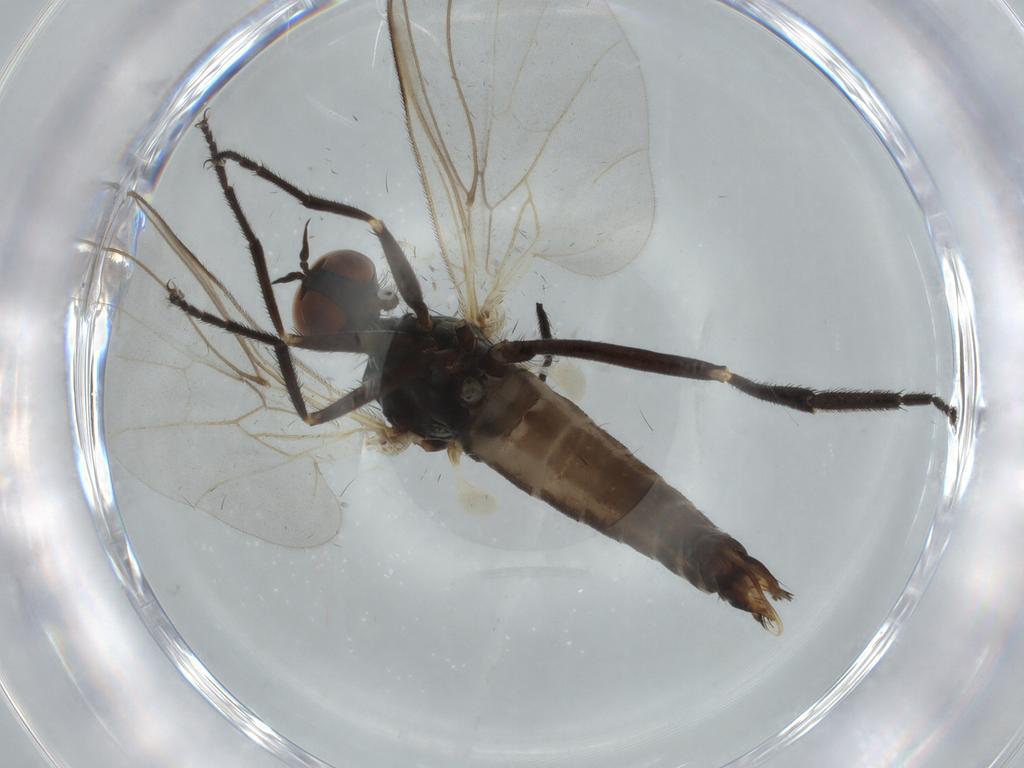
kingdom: Animalia
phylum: Arthropoda
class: Insecta
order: Diptera
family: Empididae
